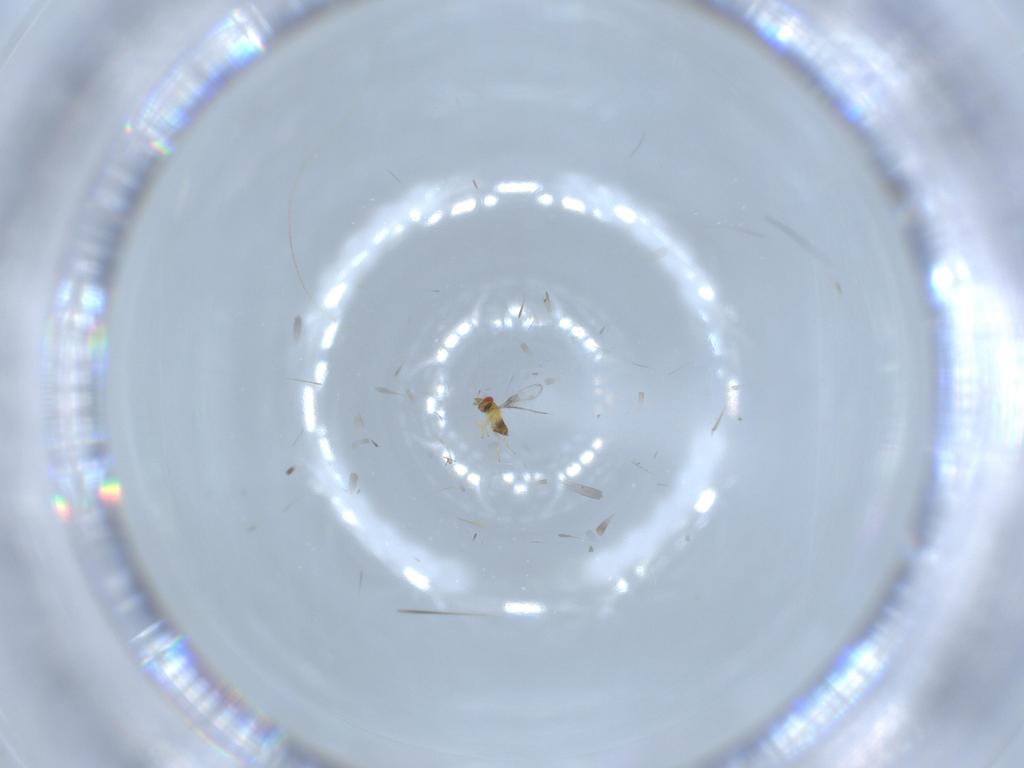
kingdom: Animalia
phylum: Arthropoda
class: Insecta
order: Hymenoptera
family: Trichogrammatidae
